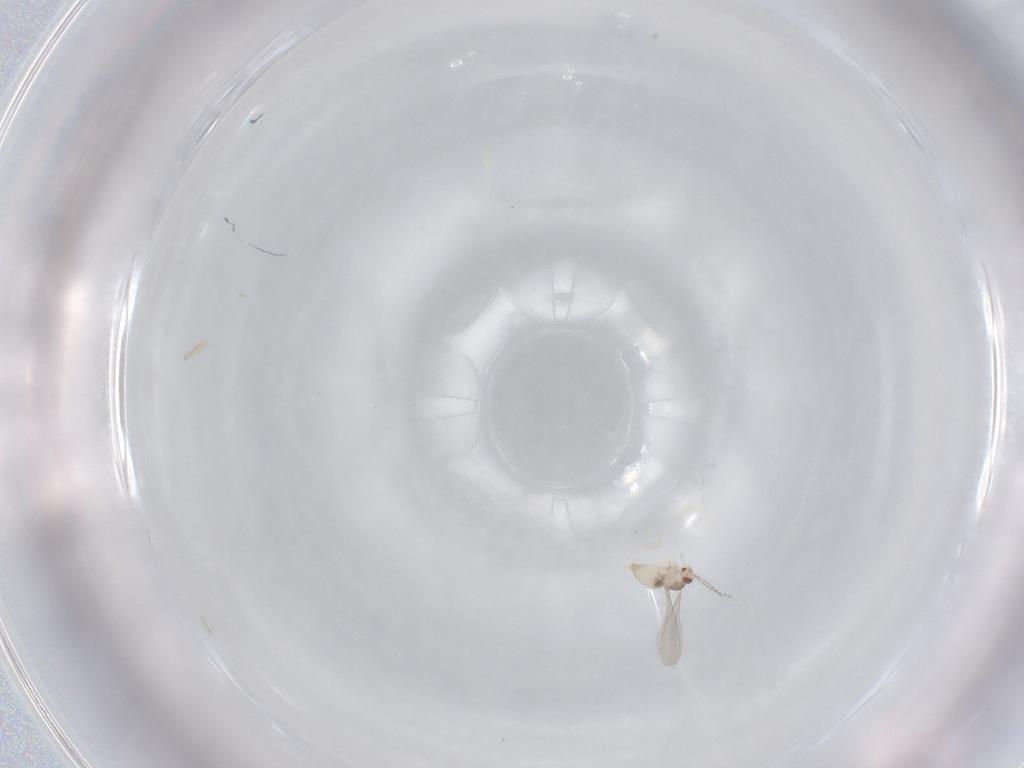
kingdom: Animalia
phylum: Arthropoda
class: Insecta
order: Diptera
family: Cecidomyiidae
